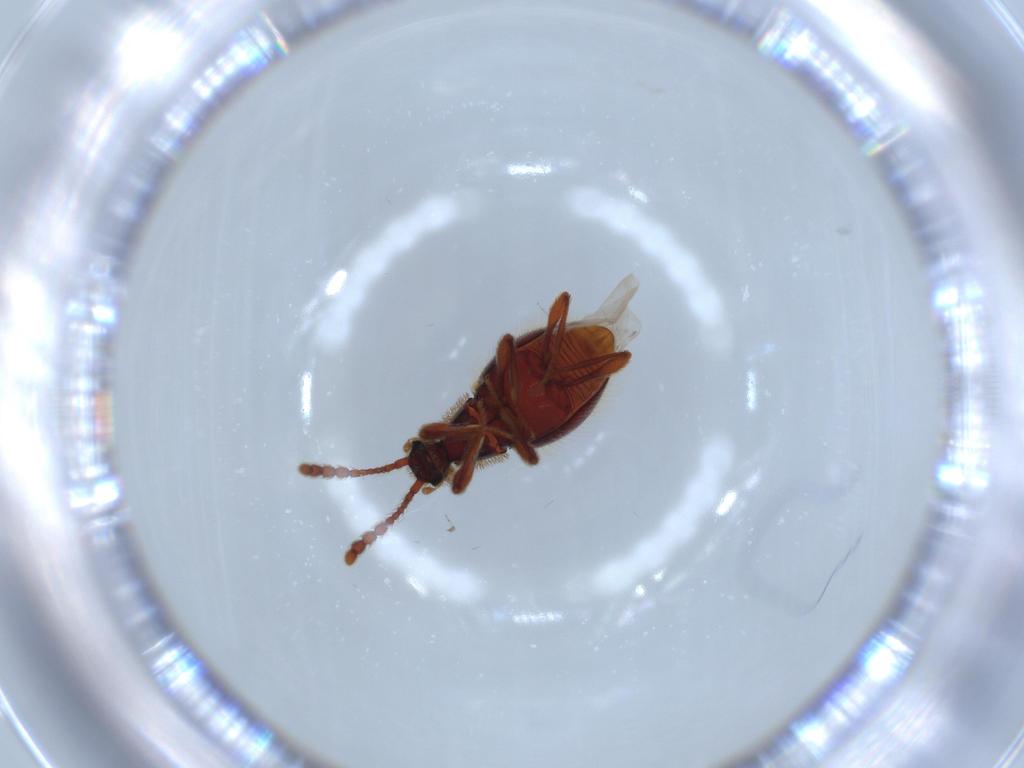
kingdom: Animalia
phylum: Arthropoda
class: Insecta
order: Coleoptera
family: Staphylinidae
